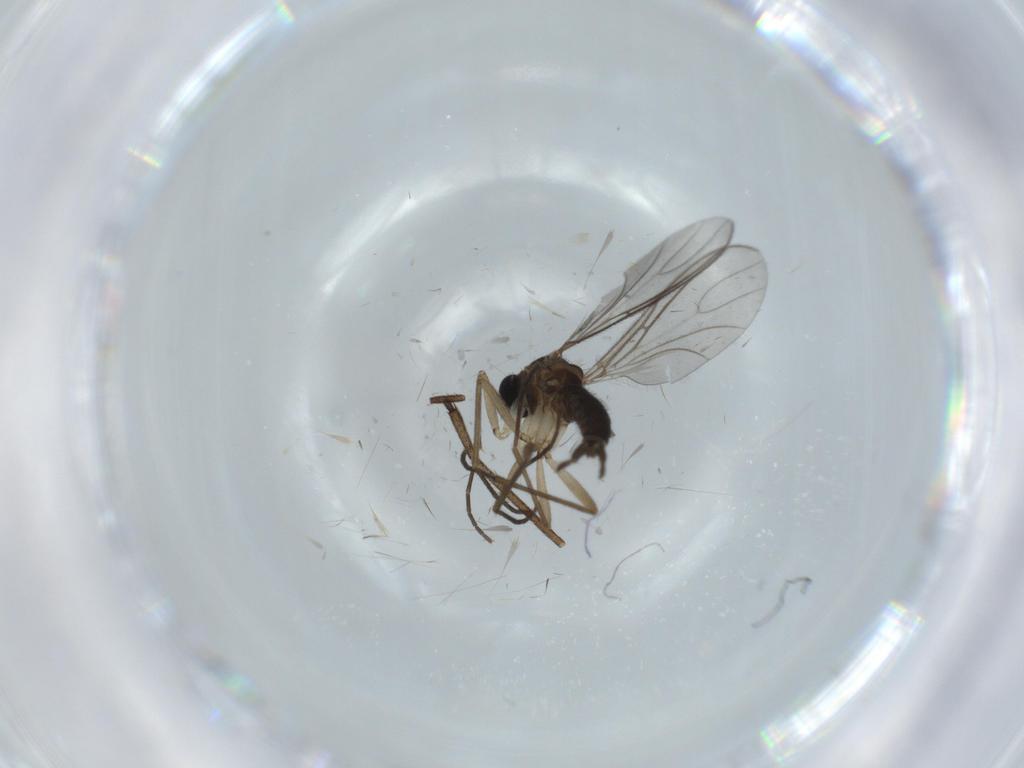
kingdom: Animalia
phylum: Arthropoda
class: Insecta
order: Diptera
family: Sciaridae
